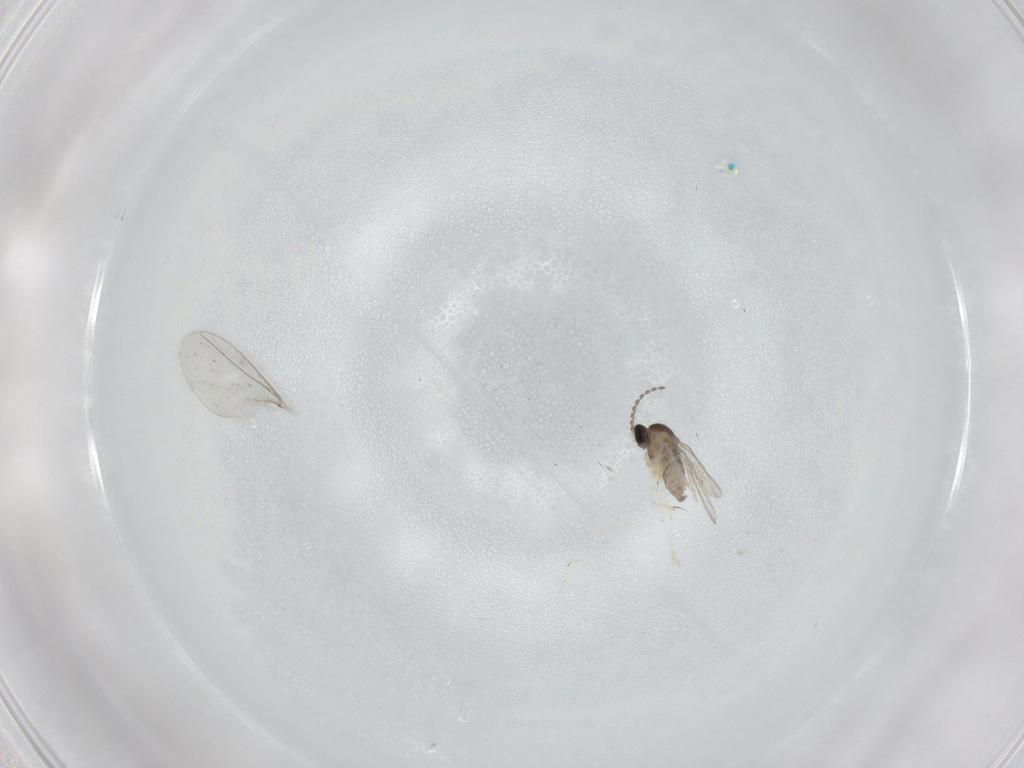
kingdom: Animalia
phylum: Arthropoda
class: Insecta
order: Diptera
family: Cecidomyiidae
